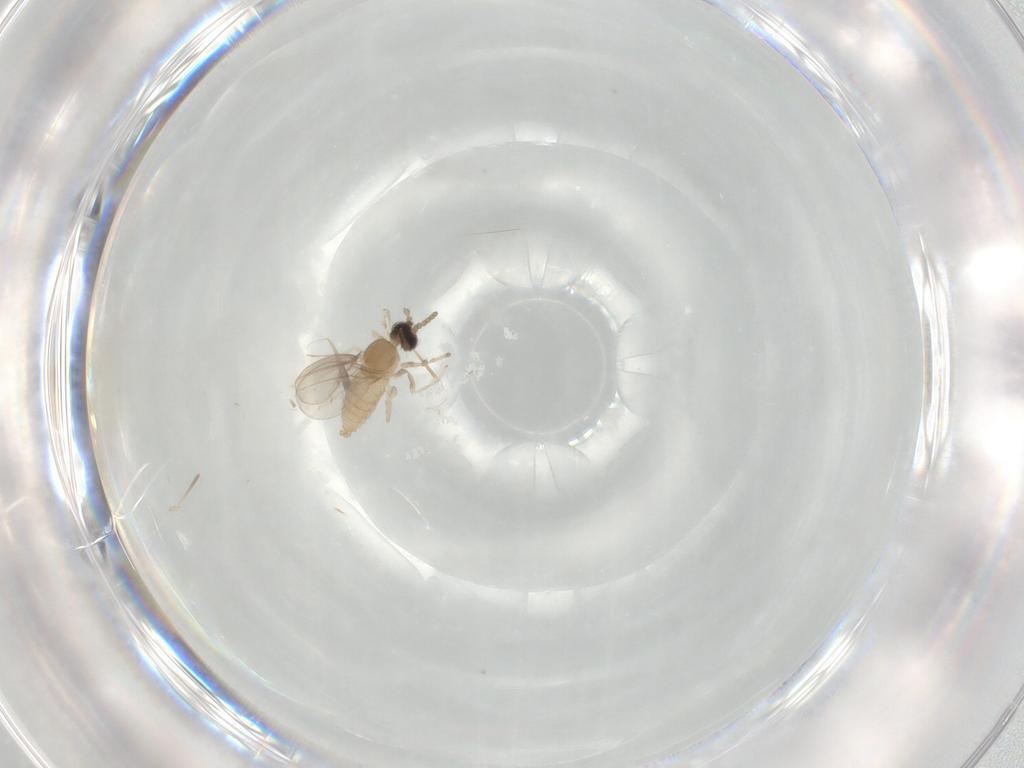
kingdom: Animalia
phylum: Arthropoda
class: Insecta
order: Diptera
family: Cecidomyiidae
